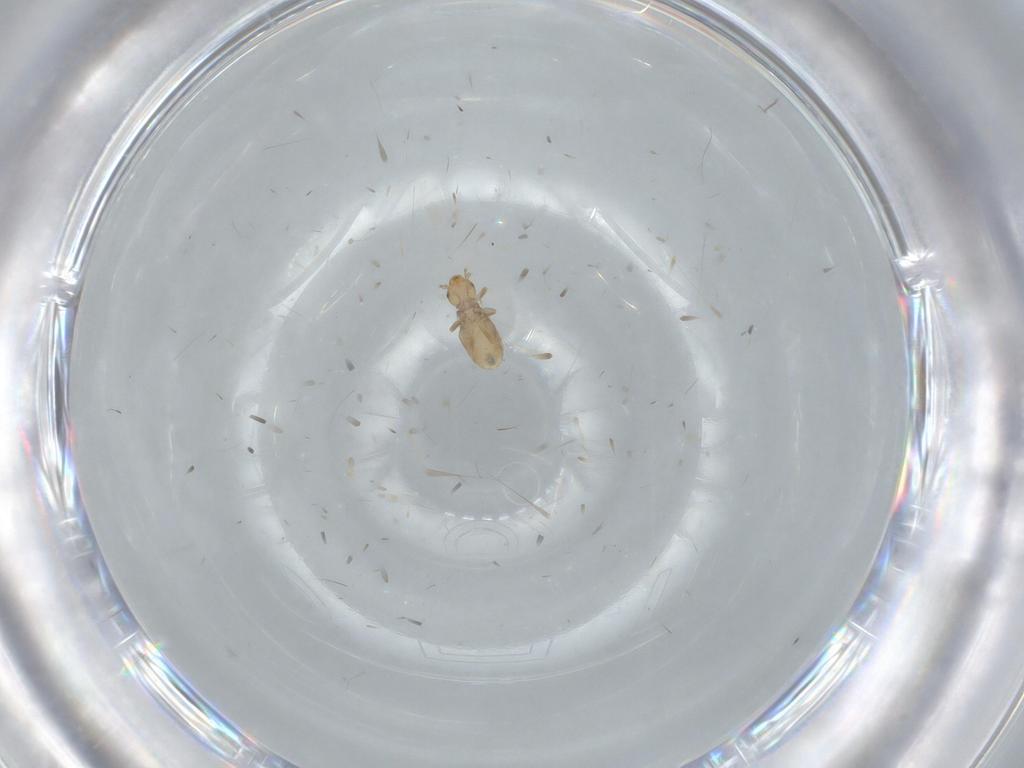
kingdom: Animalia
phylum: Arthropoda
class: Insecta
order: Psocodea
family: Liposcelididae
